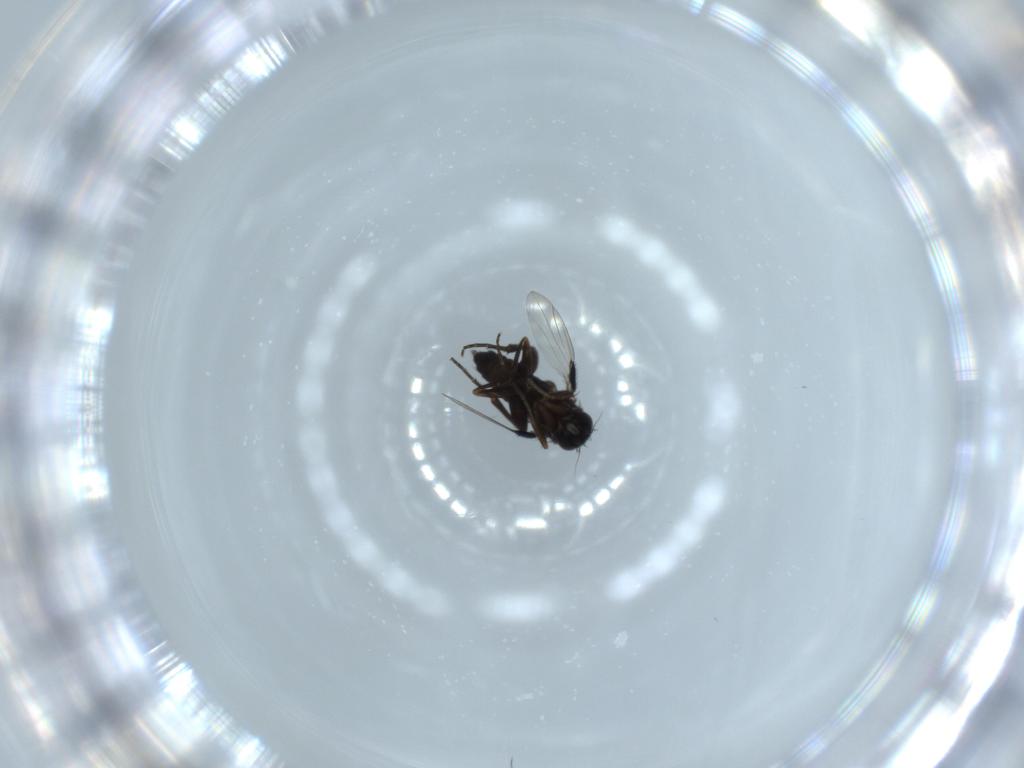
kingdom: Animalia
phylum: Arthropoda
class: Insecta
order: Diptera
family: Phoridae
